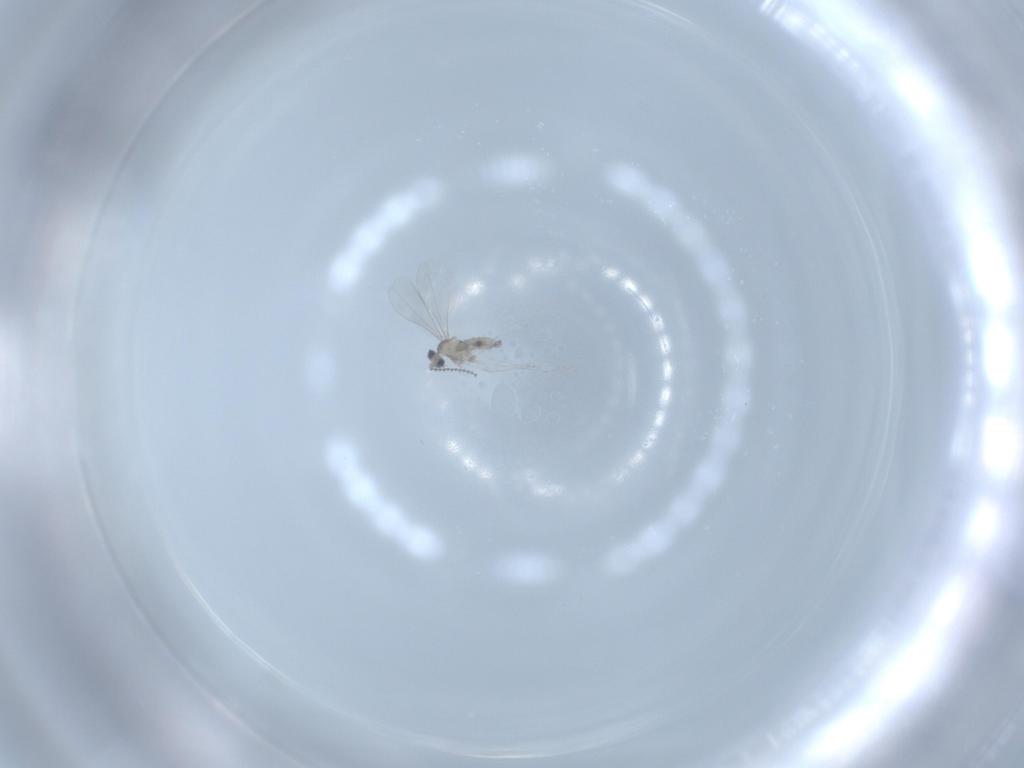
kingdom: Animalia
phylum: Arthropoda
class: Insecta
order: Diptera
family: Cecidomyiidae
